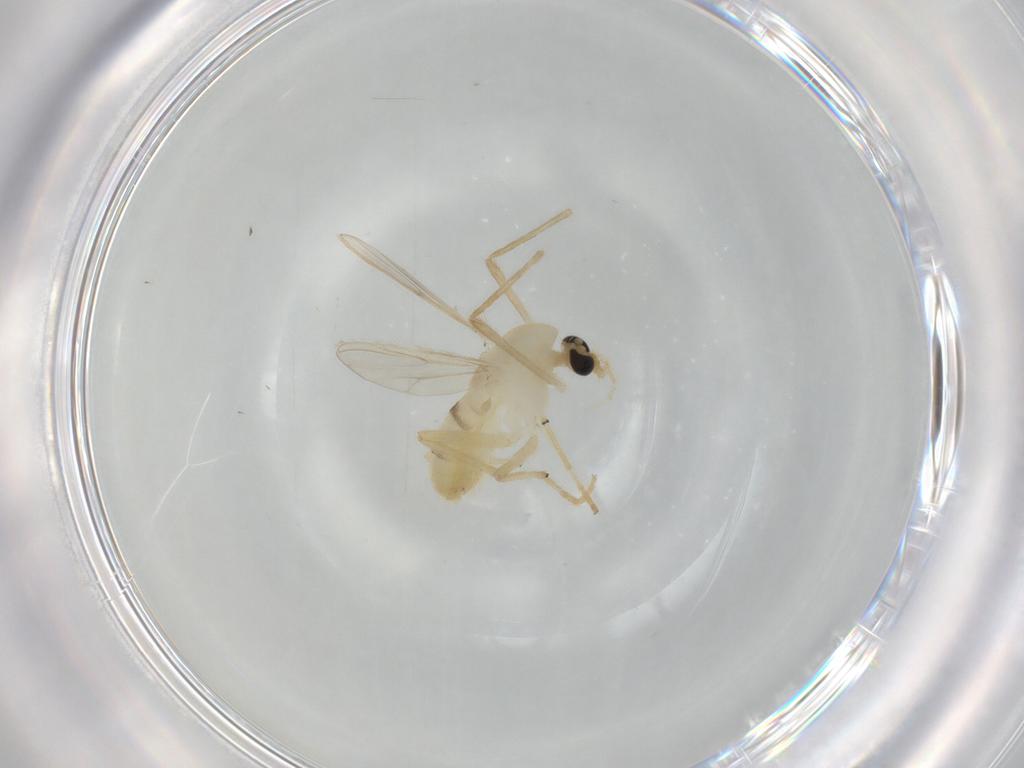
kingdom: Animalia
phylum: Arthropoda
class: Insecta
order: Diptera
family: Chironomidae
